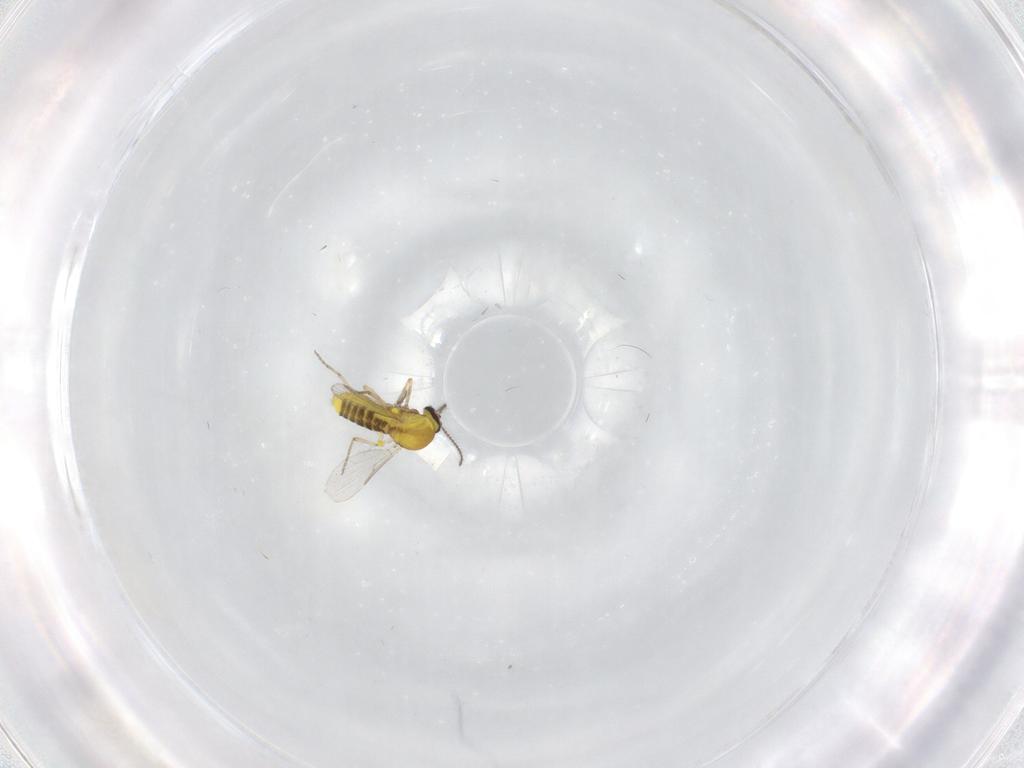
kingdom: Animalia
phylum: Arthropoda
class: Insecta
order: Diptera
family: Ceratopogonidae
